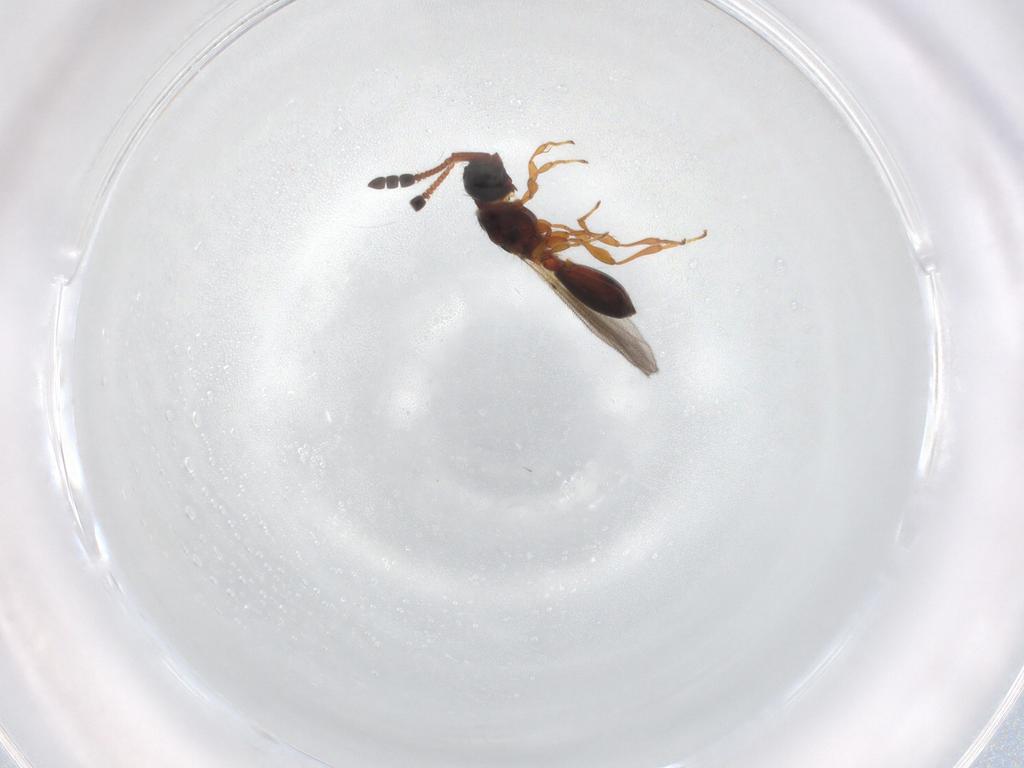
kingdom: Animalia
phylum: Arthropoda
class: Insecta
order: Hymenoptera
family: Diapriidae
